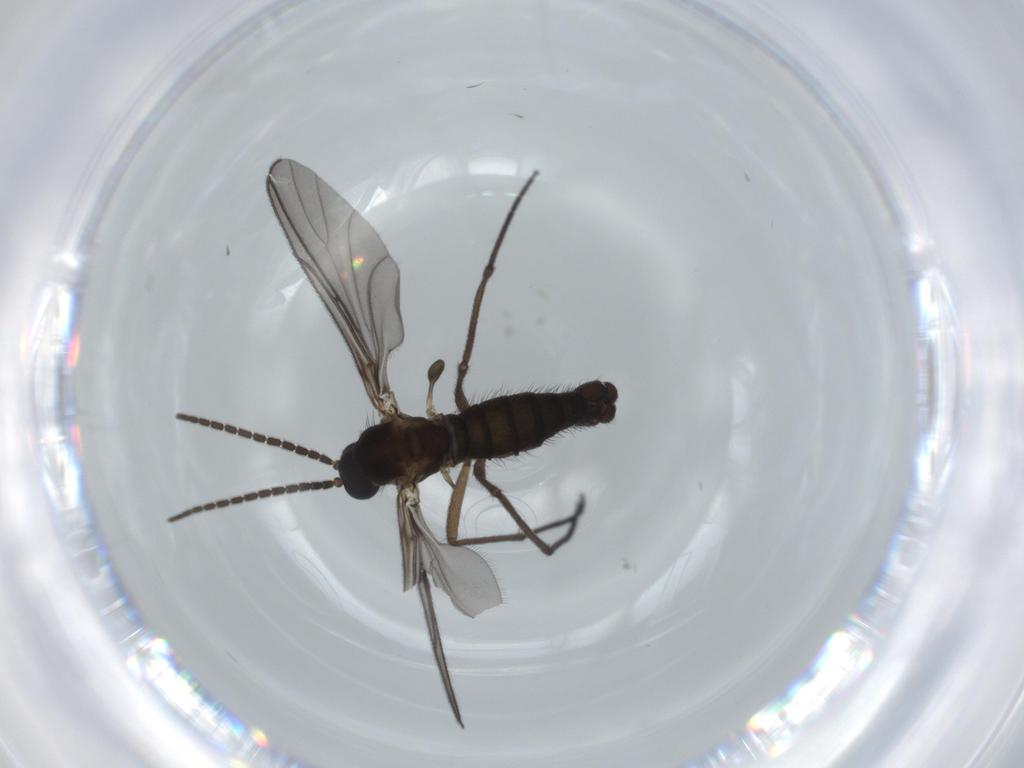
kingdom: Animalia
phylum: Arthropoda
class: Insecta
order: Diptera
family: Sciaridae
